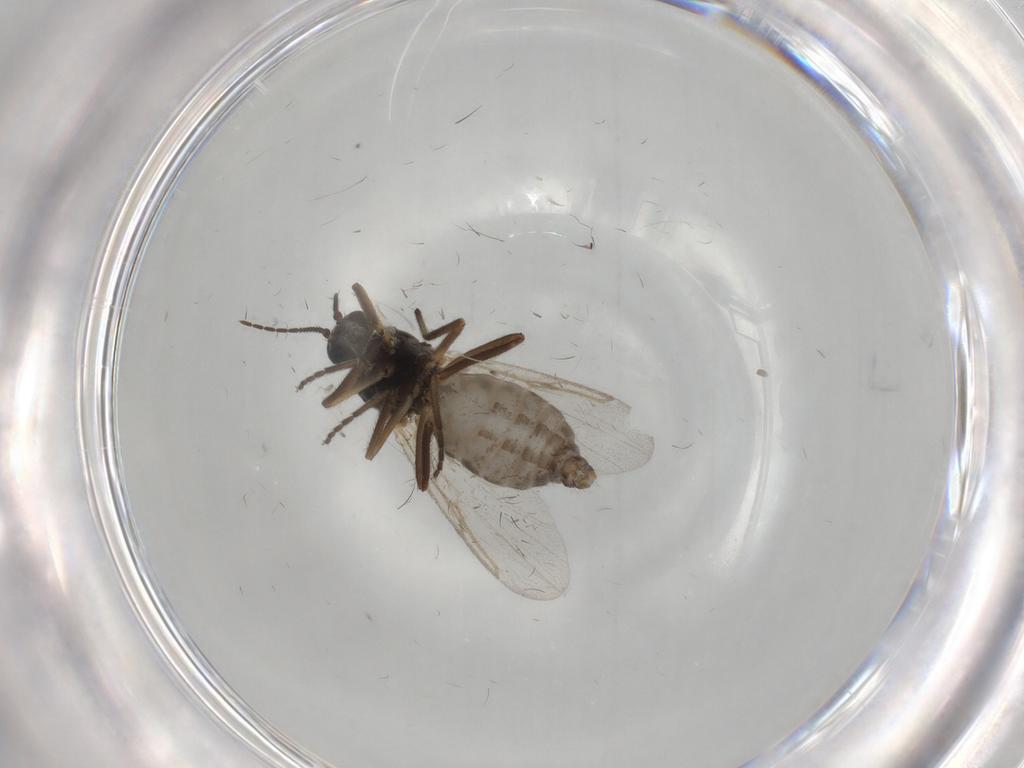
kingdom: Animalia
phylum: Arthropoda
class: Insecta
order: Diptera
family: Ceratopogonidae
